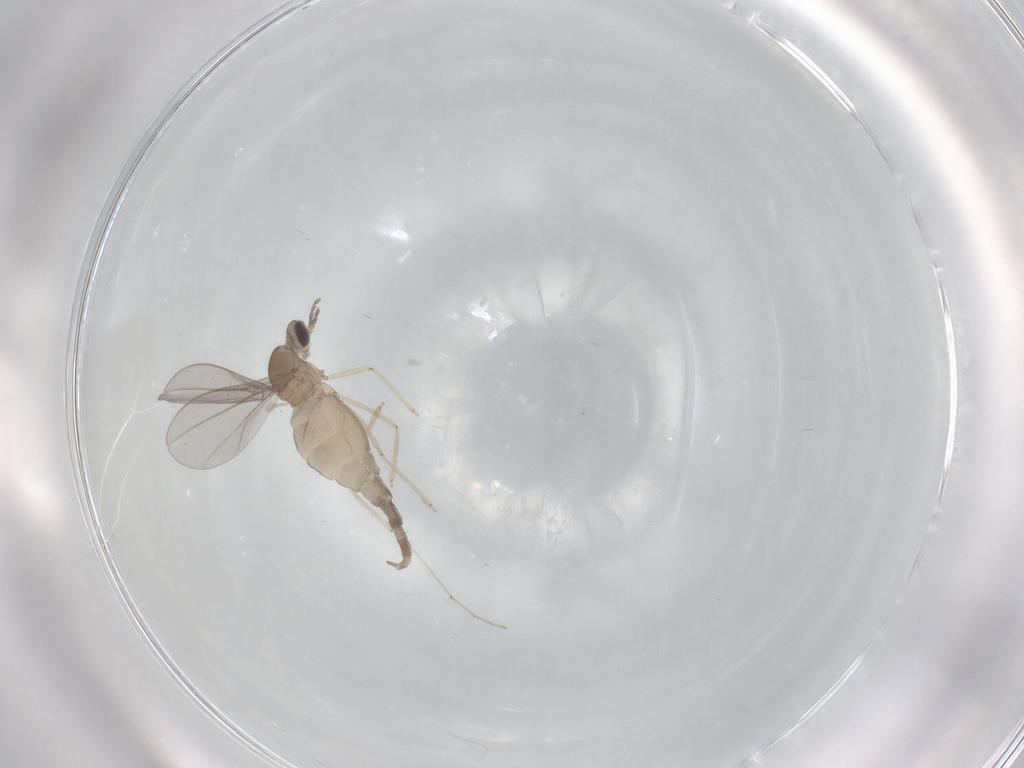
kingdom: Animalia
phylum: Arthropoda
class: Insecta
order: Diptera
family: Cecidomyiidae
